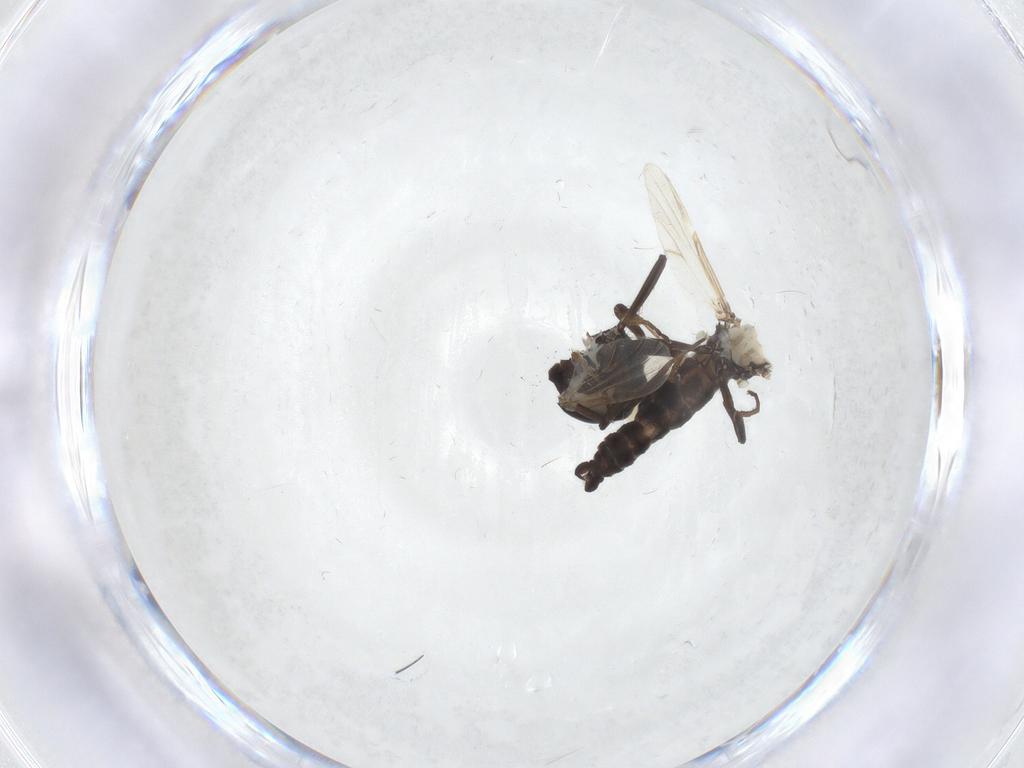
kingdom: Animalia
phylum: Arthropoda
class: Insecta
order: Diptera
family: Ceratopogonidae
